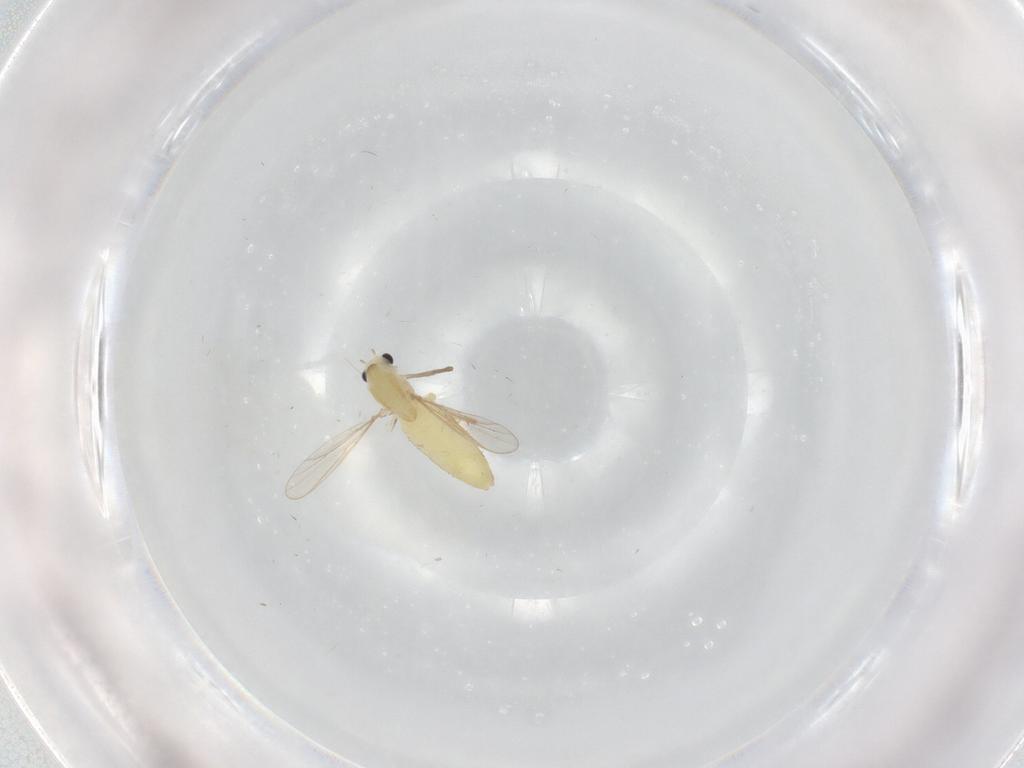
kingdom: Animalia
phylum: Arthropoda
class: Insecta
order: Diptera
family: Chironomidae
